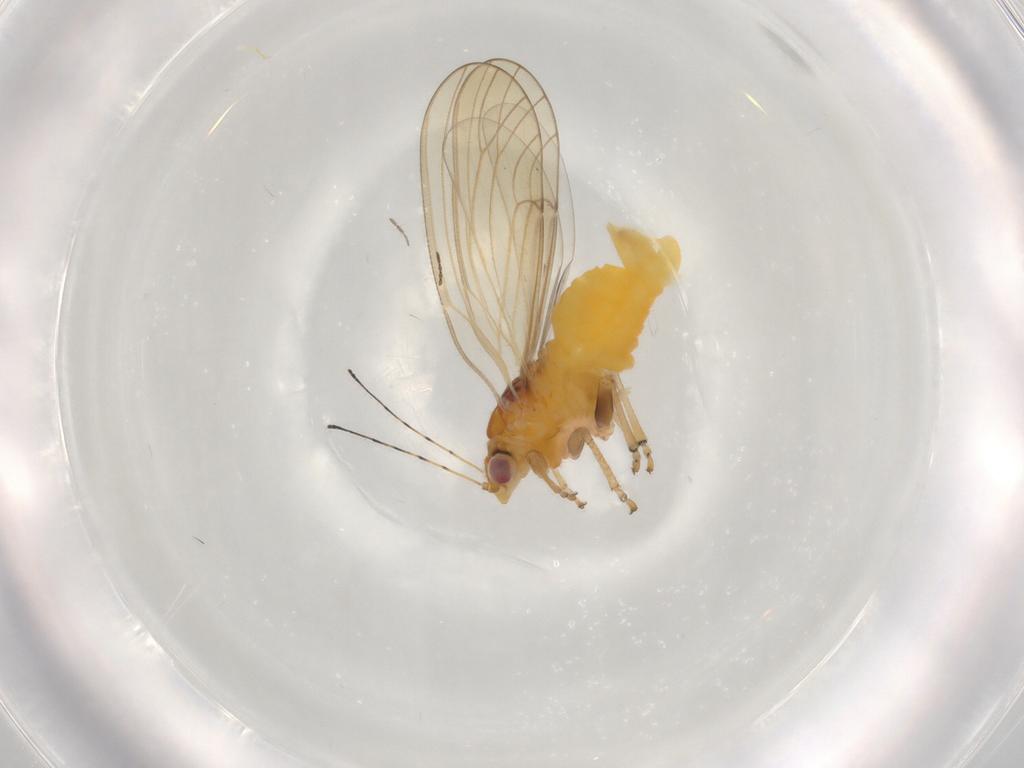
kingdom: Animalia
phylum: Arthropoda
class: Insecta
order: Hemiptera
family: Psylloidea_incertae_sedis
